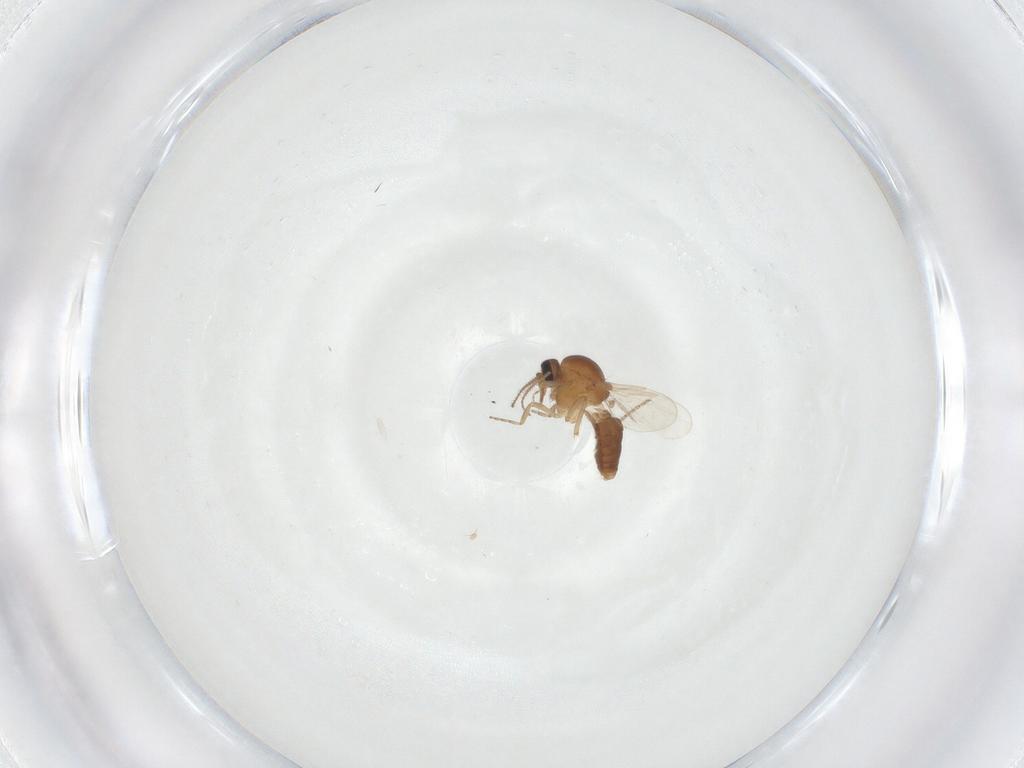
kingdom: Animalia
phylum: Arthropoda
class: Insecta
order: Diptera
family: Ceratopogonidae
